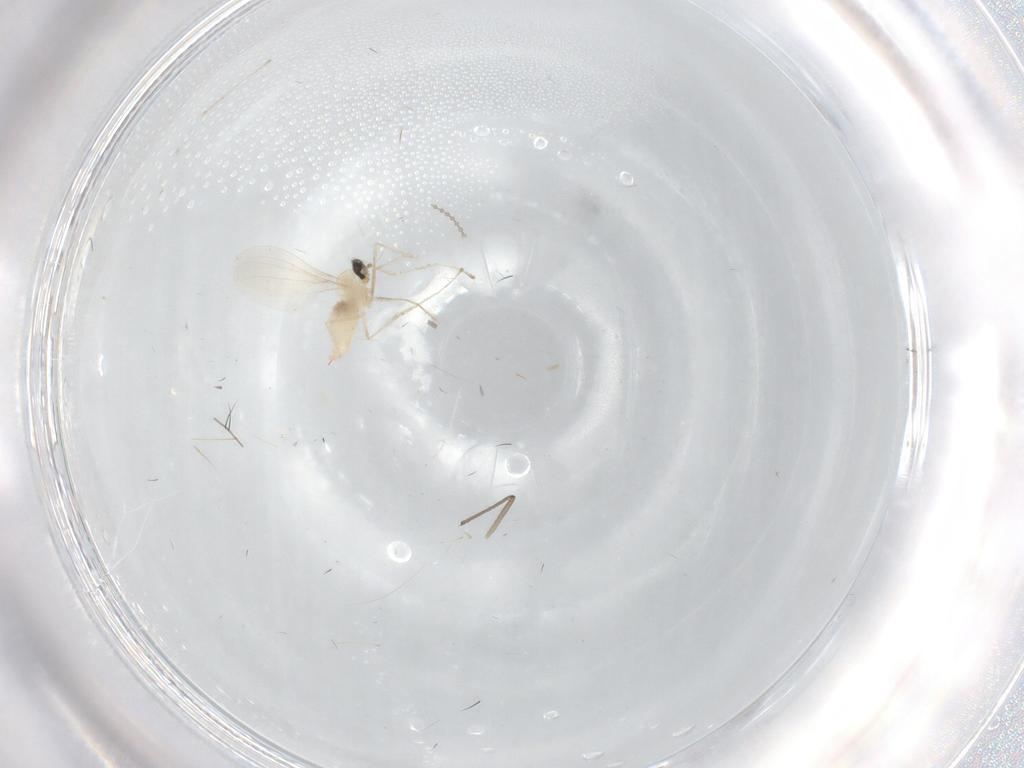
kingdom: Animalia
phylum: Arthropoda
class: Insecta
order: Diptera
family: Cecidomyiidae
